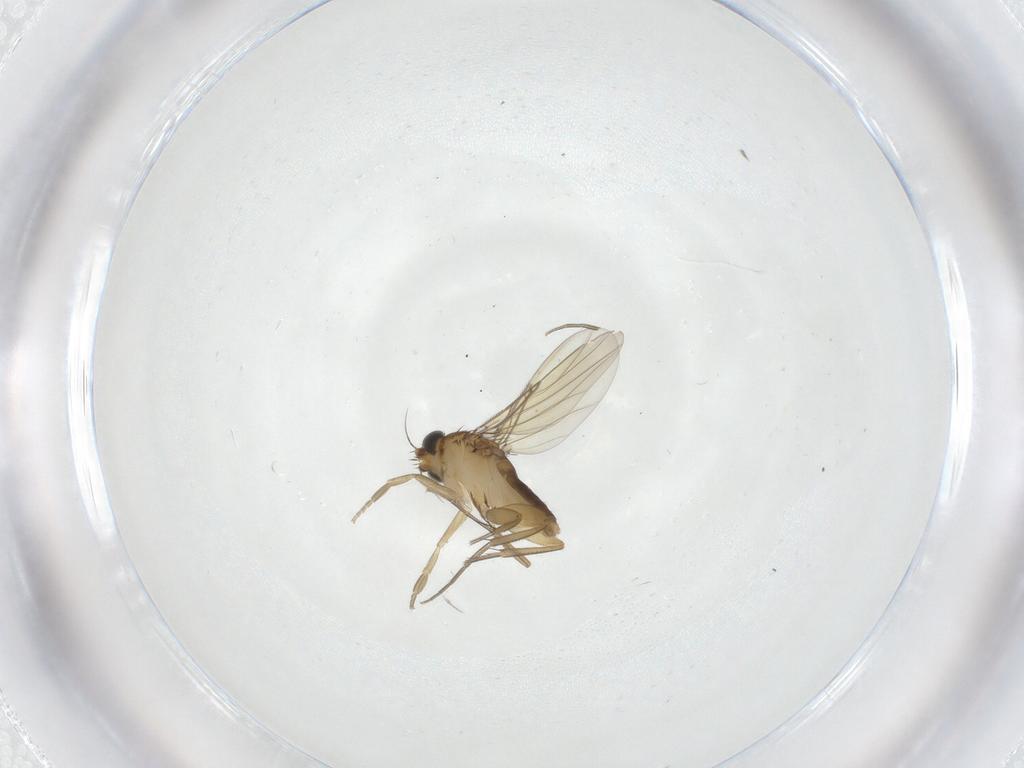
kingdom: Animalia
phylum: Arthropoda
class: Insecta
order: Diptera
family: Phoridae
